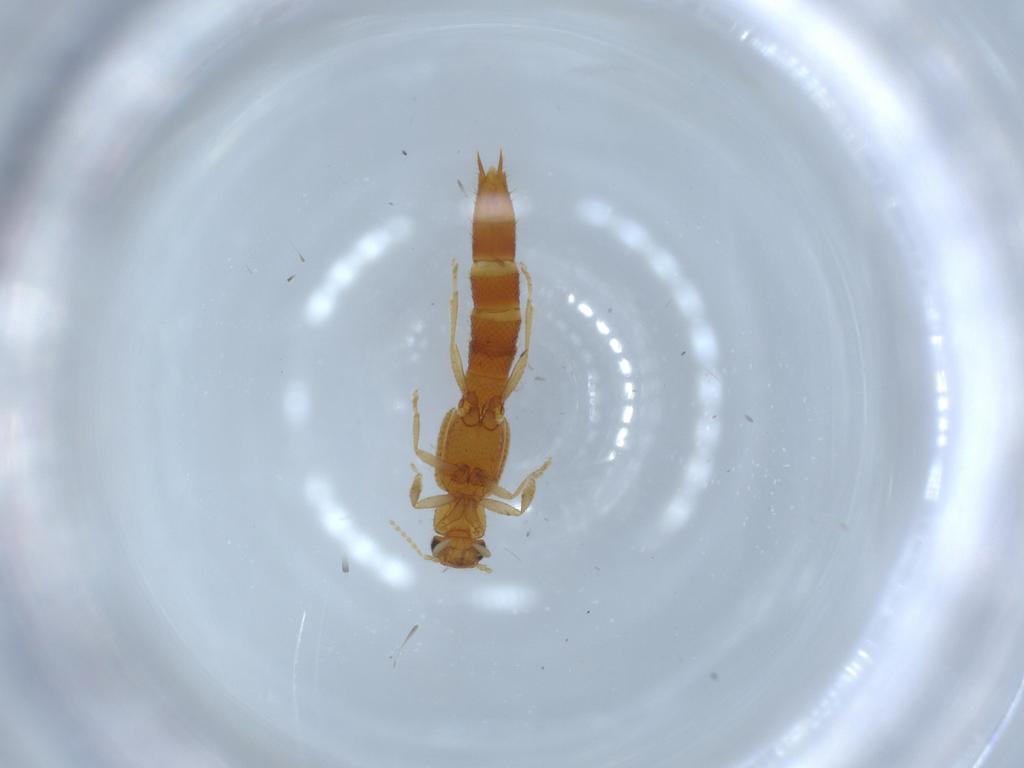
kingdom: Animalia
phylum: Arthropoda
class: Insecta
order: Coleoptera
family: Staphylinidae
